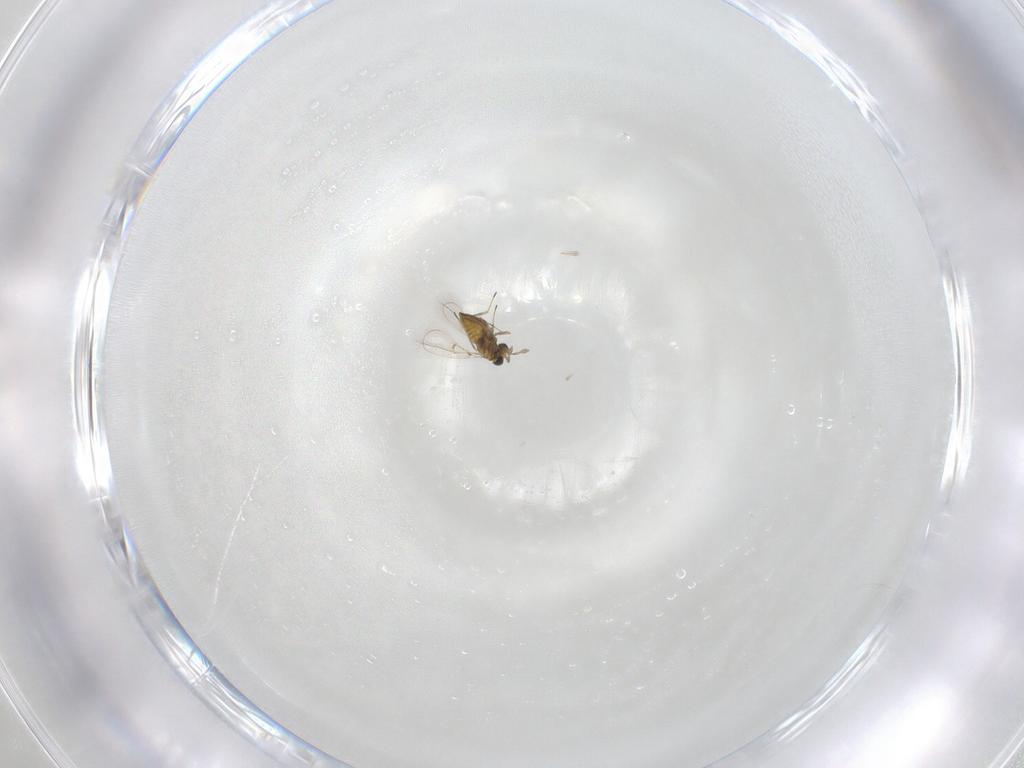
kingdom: Animalia
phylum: Arthropoda
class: Insecta
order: Hymenoptera
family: Trichogrammatidae
